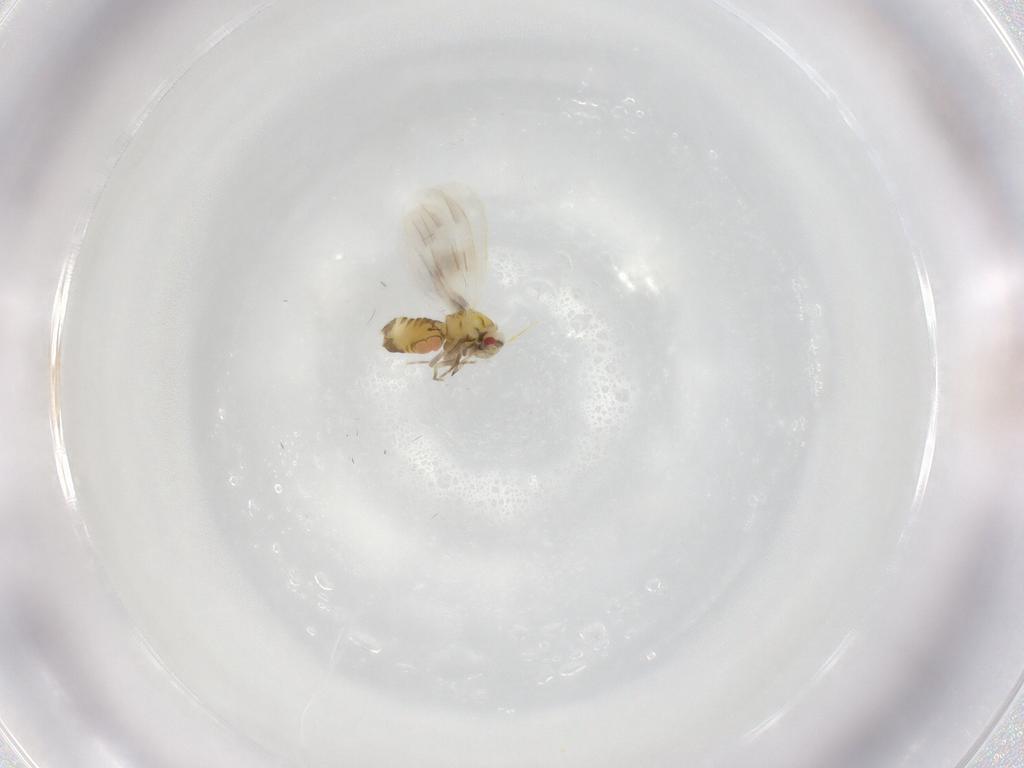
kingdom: Animalia
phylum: Arthropoda
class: Insecta
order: Hemiptera
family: Aleyrodidae
